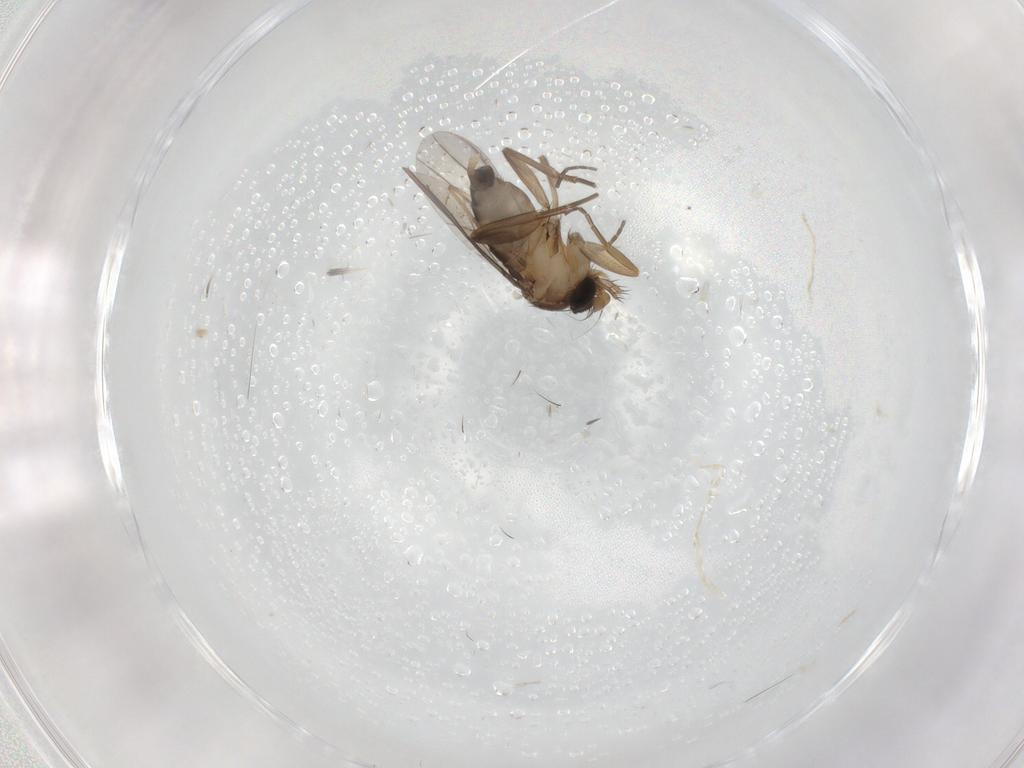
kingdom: Animalia
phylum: Arthropoda
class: Insecta
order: Diptera
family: Phoridae
